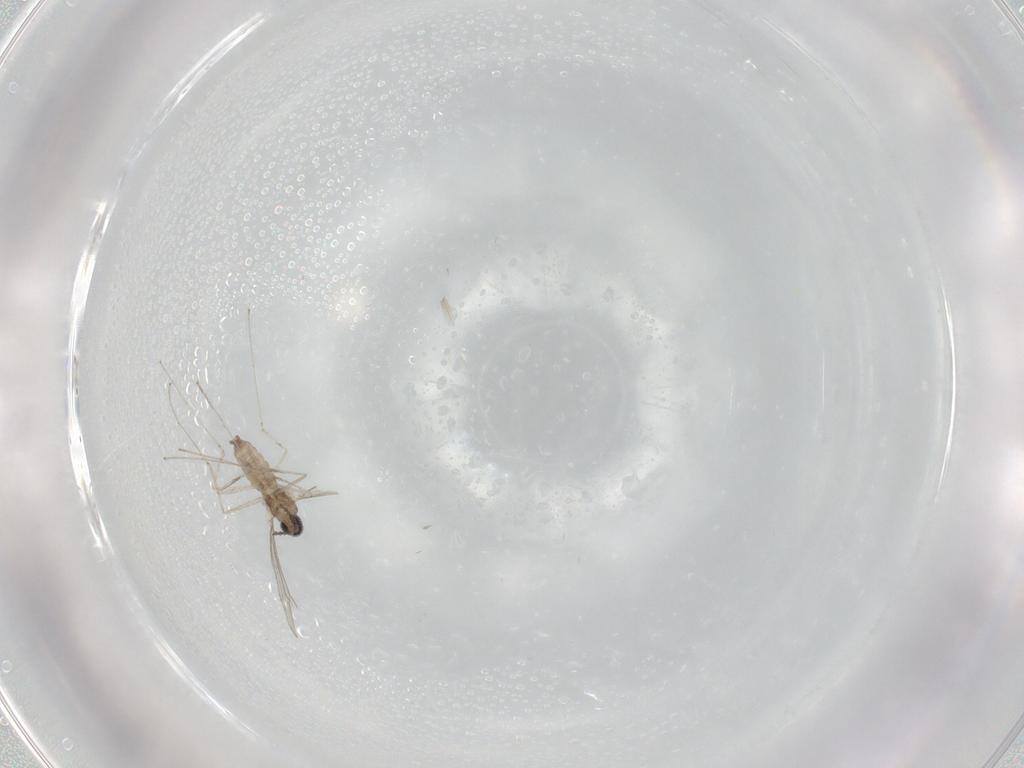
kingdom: Animalia
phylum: Arthropoda
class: Insecta
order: Diptera
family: Cecidomyiidae
